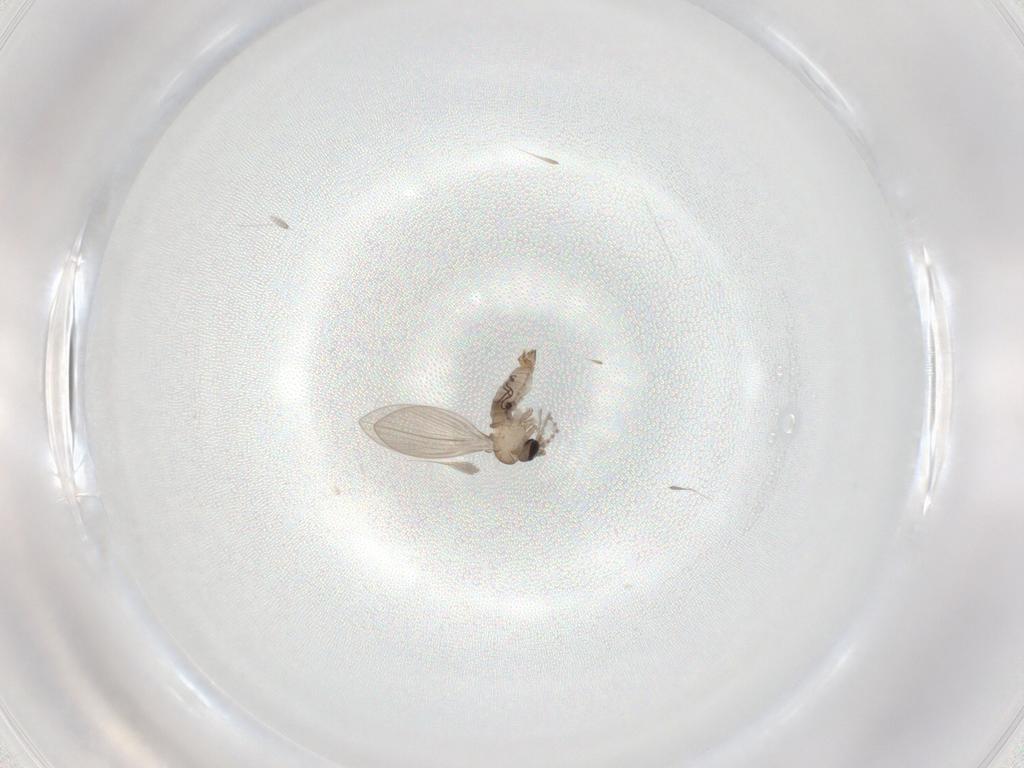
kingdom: Animalia
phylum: Arthropoda
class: Insecta
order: Diptera
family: Psychodidae
